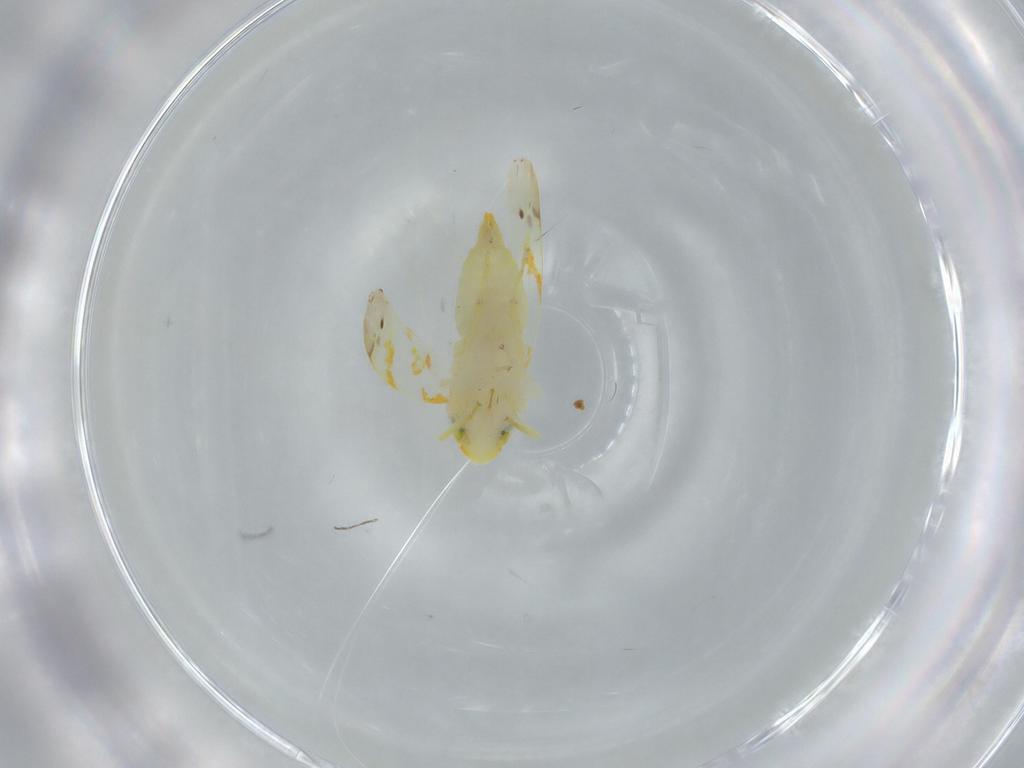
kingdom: Animalia
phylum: Arthropoda
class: Insecta
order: Hemiptera
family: Cicadellidae
